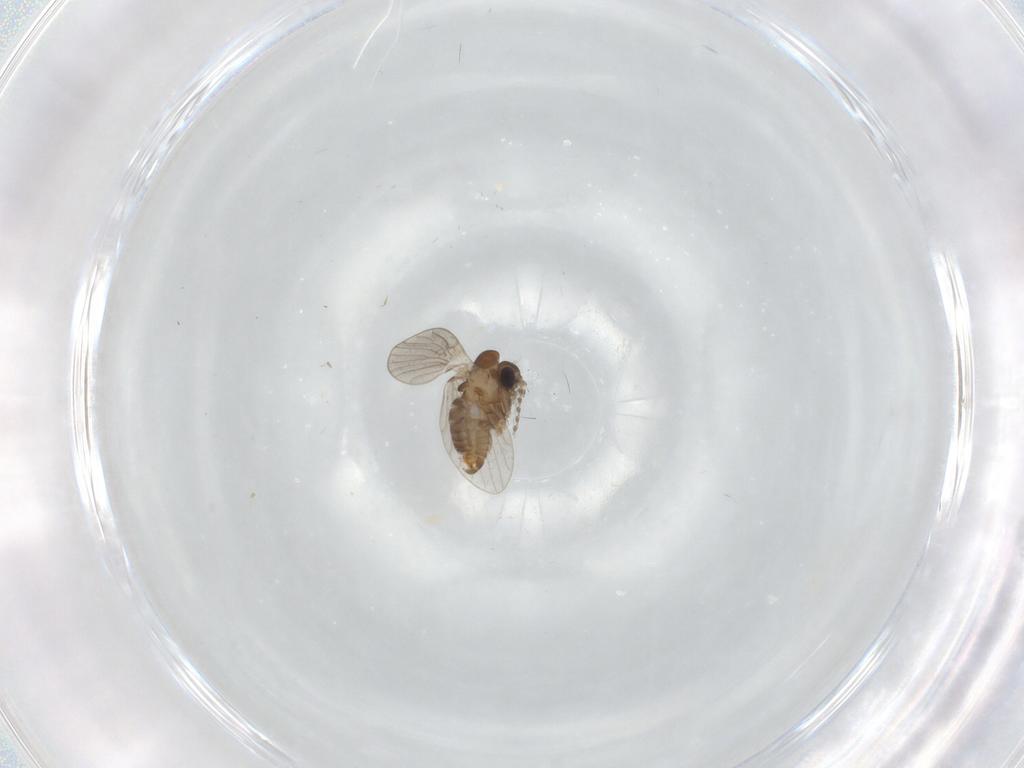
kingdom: Animalia
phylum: Arthropoda
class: Insecta
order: Diptera
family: Cecidomyiidae
